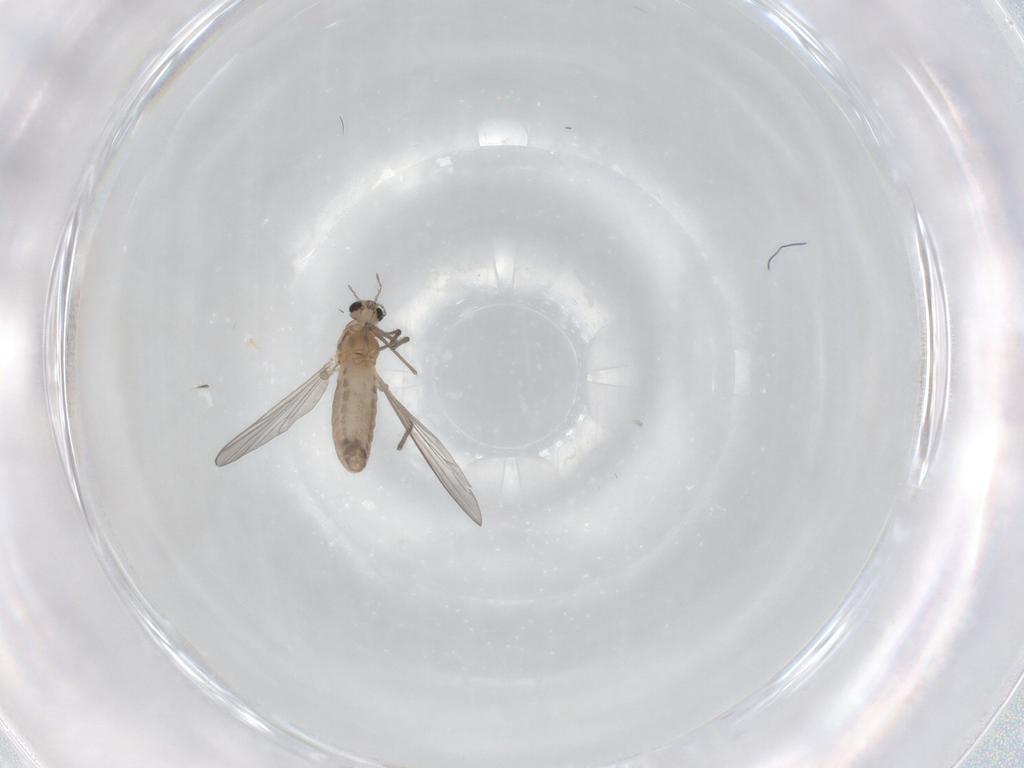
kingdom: Animalia
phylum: Arthropoda
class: Insecta
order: Diptera
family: Chironomidae
